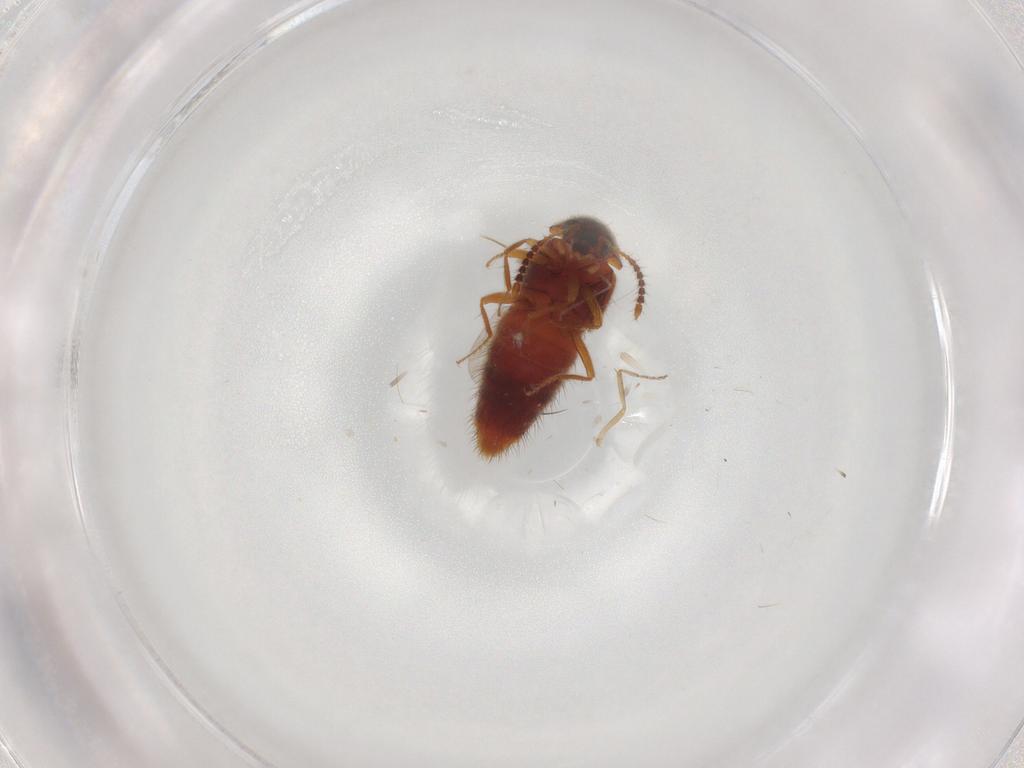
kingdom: Animalia
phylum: Arthropoda
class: Insecta
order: Coleoptera
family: Staphylinidae
